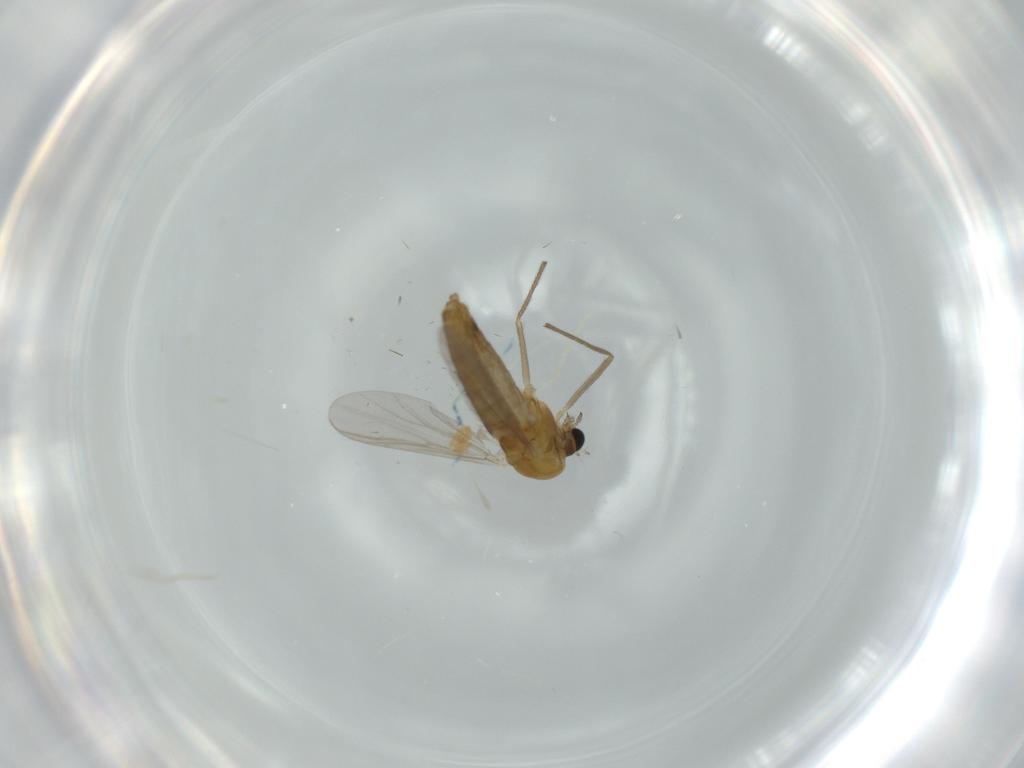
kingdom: Animalia
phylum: Arthropoda
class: Insecta
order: Diptera
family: Chironomidae
